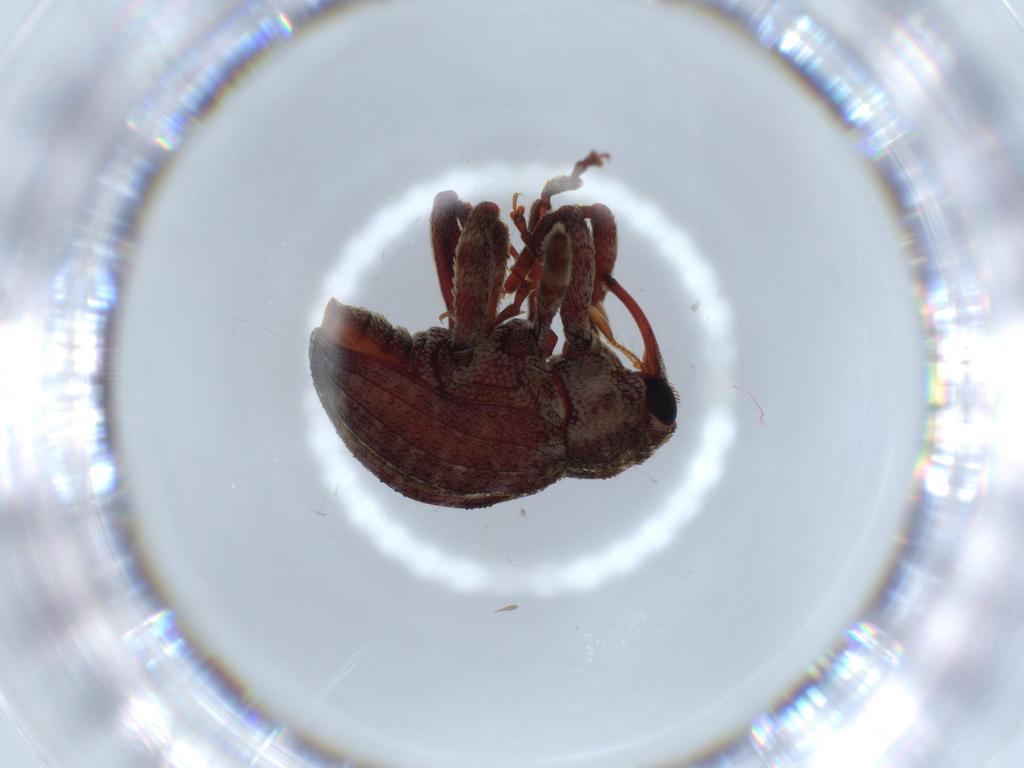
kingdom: Animalia
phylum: Arthropoda
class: Insecta
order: Coleoptera
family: Curculionidae
